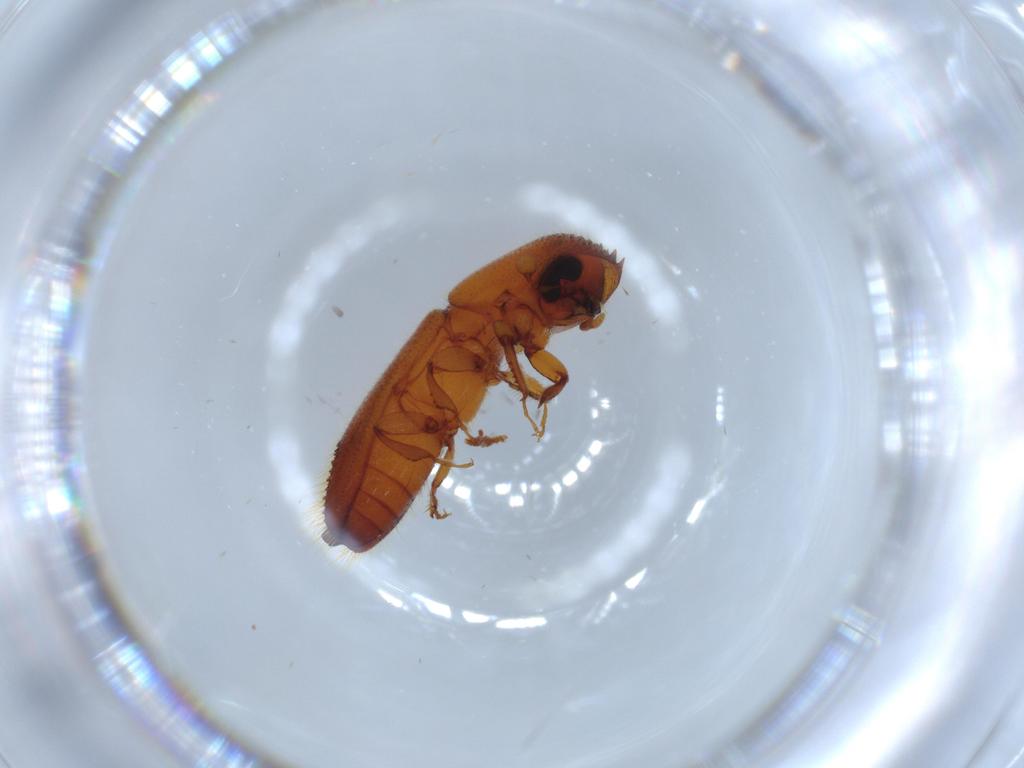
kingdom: Animalia
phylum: Arthropoda
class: Insecta
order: Coleoptera
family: Curculionidae
